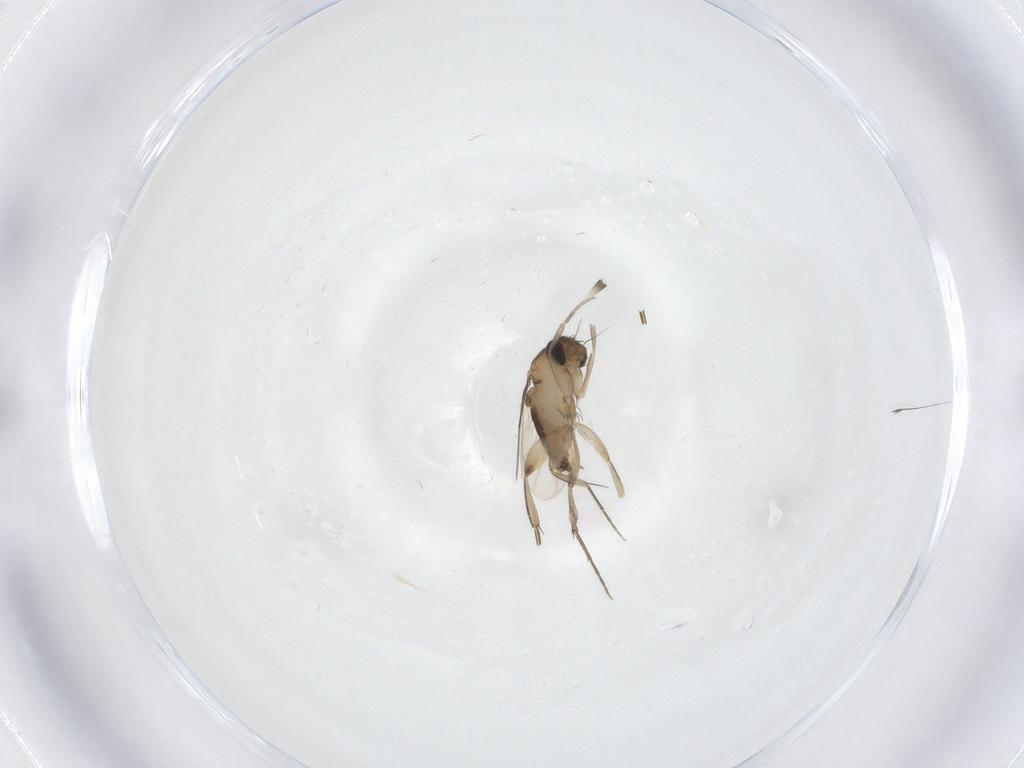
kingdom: Animalia
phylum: Arthropoda
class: Insecta
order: Diptera
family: Phoridae
